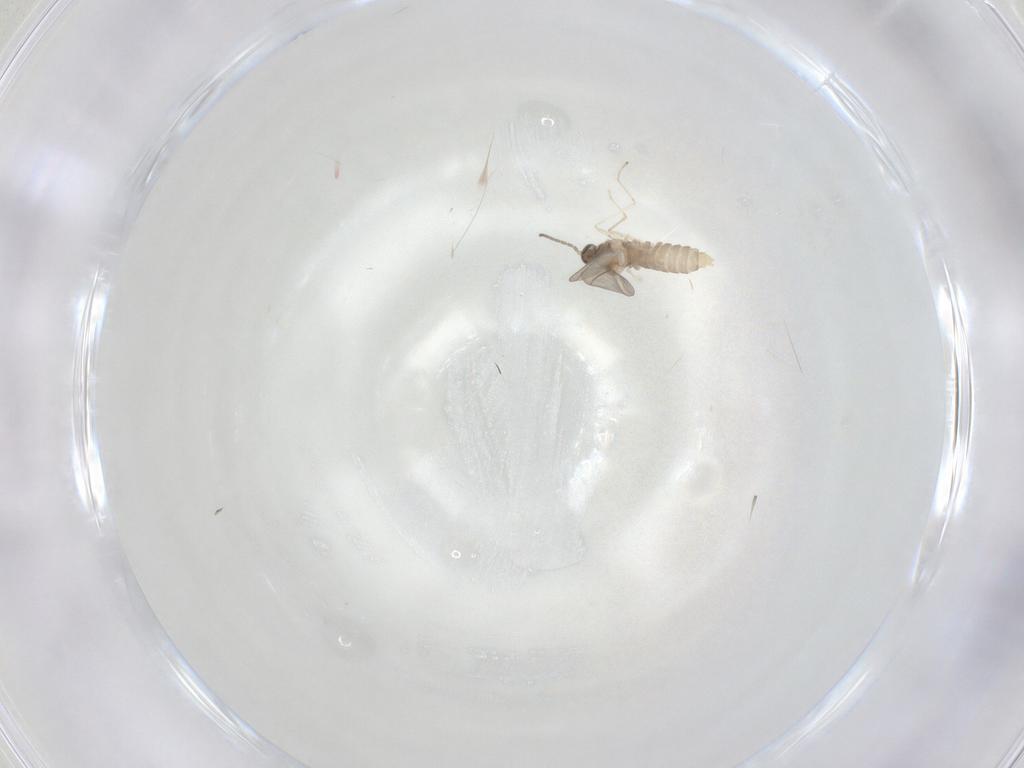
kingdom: Animalia
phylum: Arthropoda
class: Insecta
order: Diptera
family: Cecidomyiidae
